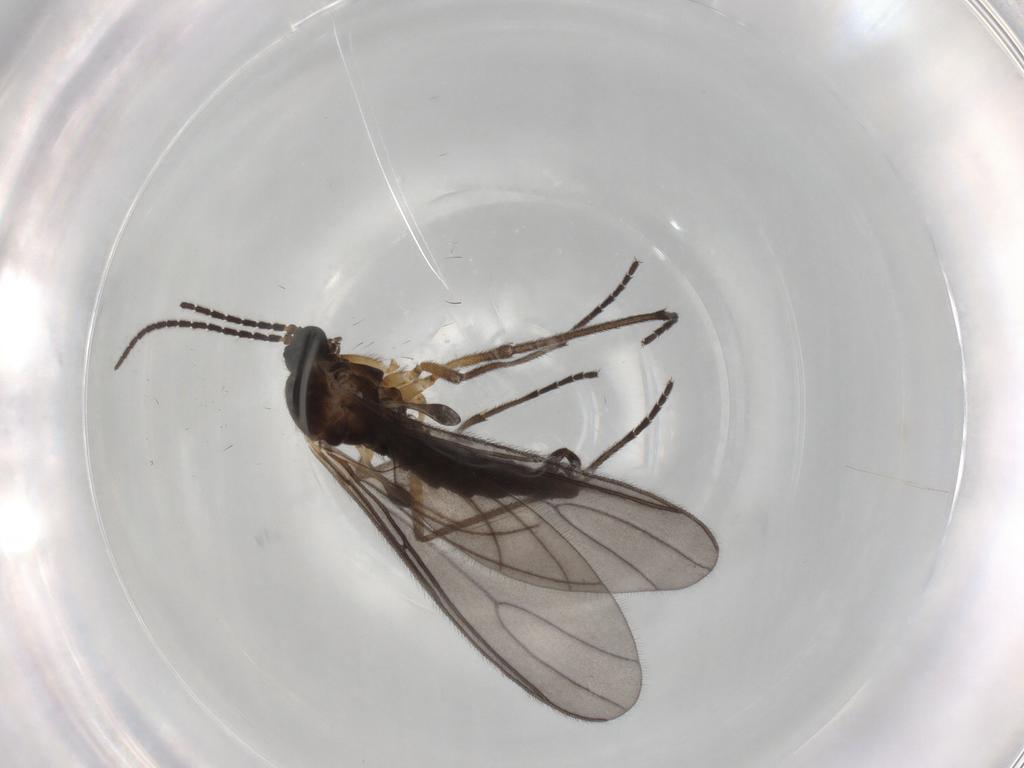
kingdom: Animalia
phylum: Arthropoda
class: Insecta
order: Diptera
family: Sciaridae
